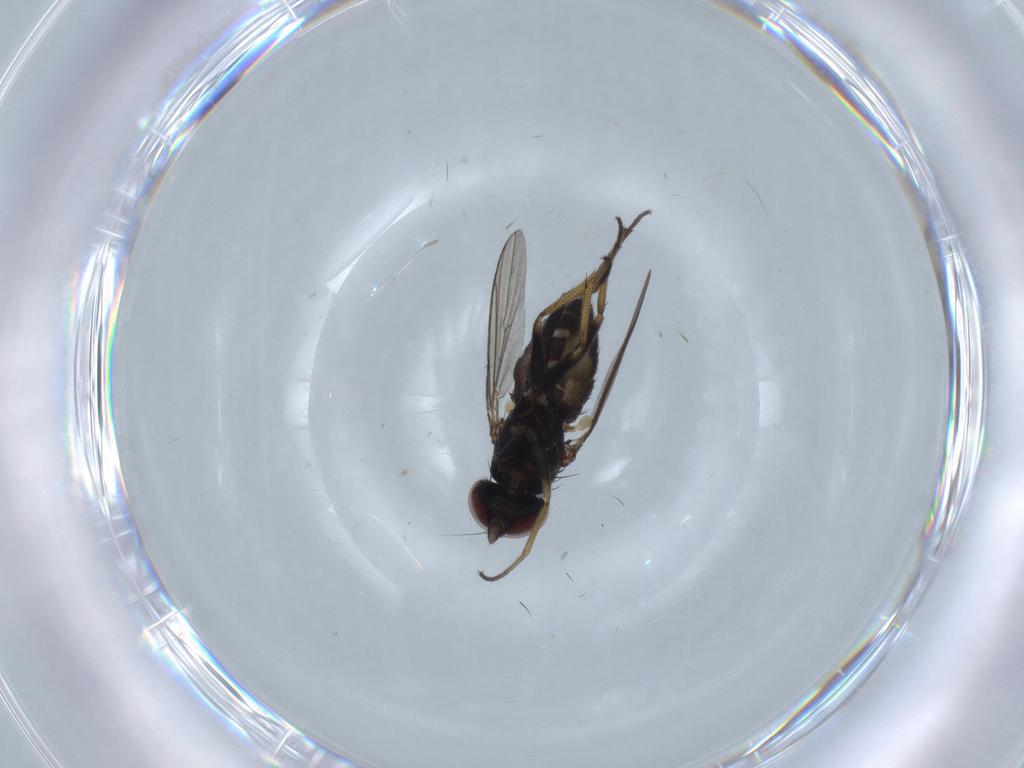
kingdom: Animalia
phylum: Arthropoda
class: Insecta
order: Diptera
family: Dolichopodidae
